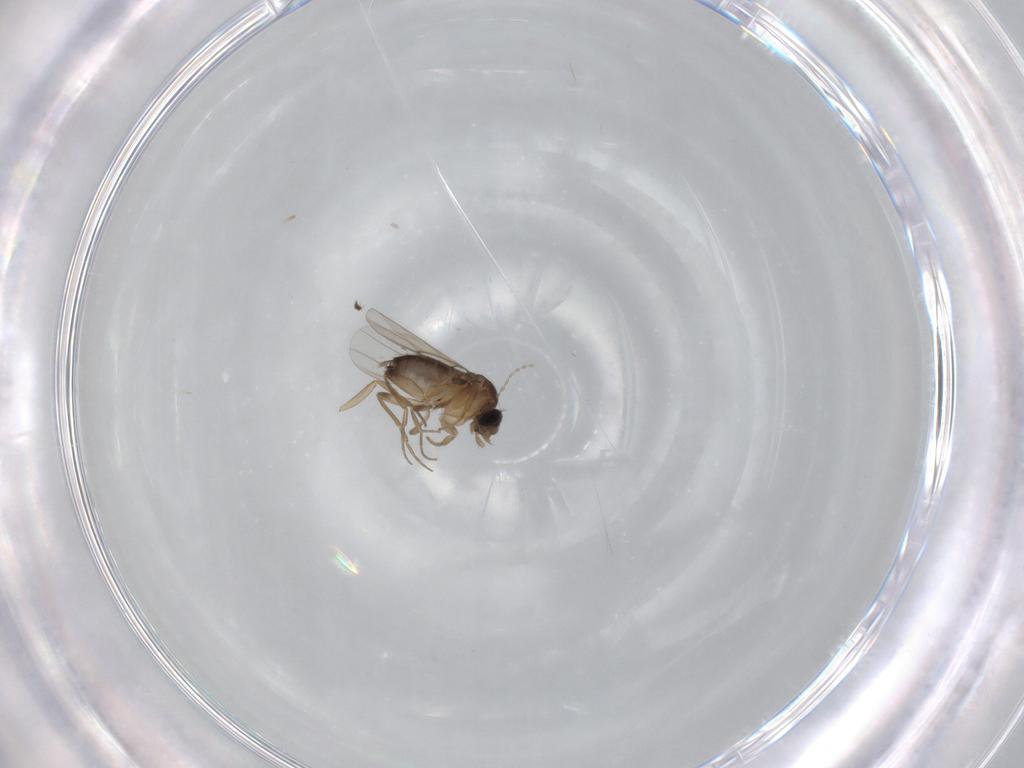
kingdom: Animalia
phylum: Arthropoda
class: Insecta
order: Diptera
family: Phoridae
